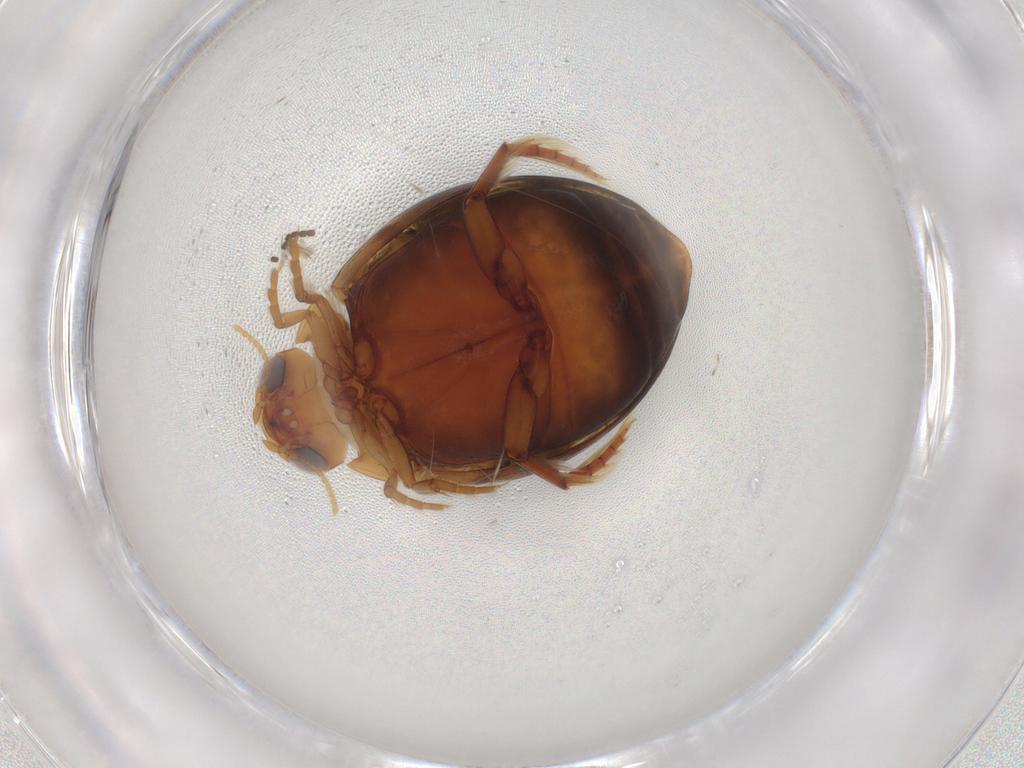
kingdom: Animalia
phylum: Arthropoda
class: Insecta
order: Coleoptera
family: Dytiscidae
